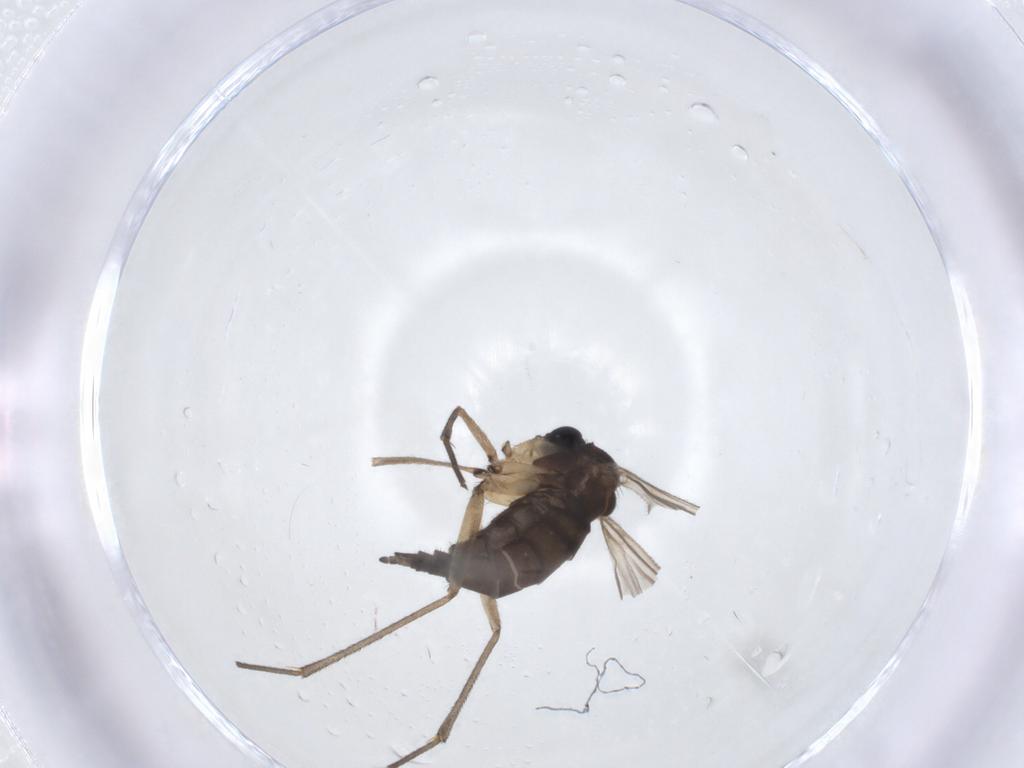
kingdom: Animalia
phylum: Arthropoda
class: Insecta
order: Diptera
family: Sciaridae
